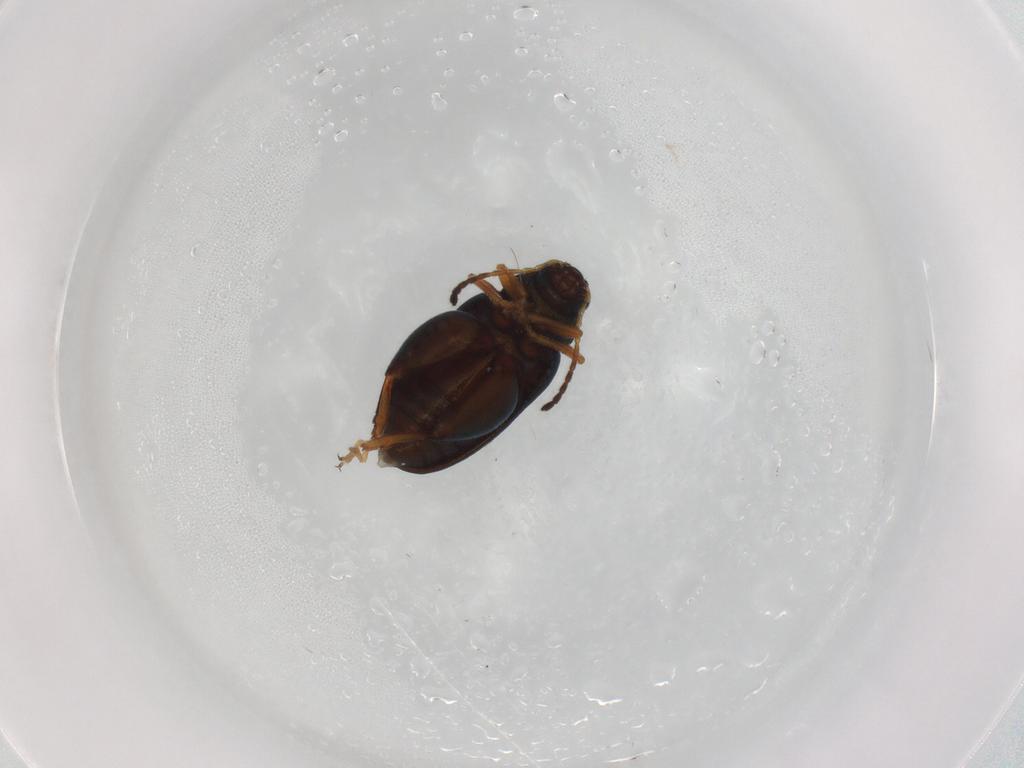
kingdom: Animalia
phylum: Arthropoda
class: Insecta
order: Coleoptera
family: Chrysomelidae
